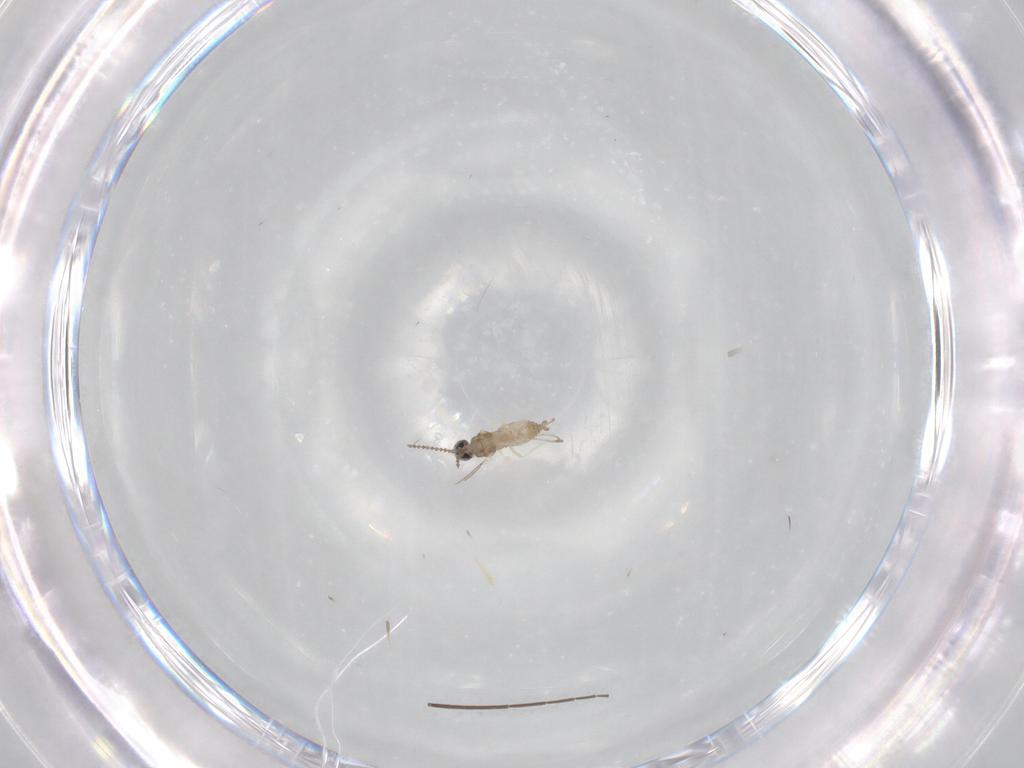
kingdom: Animalia
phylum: Arthropoda
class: Insecta
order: Diptera
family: Cecidomyiidae
